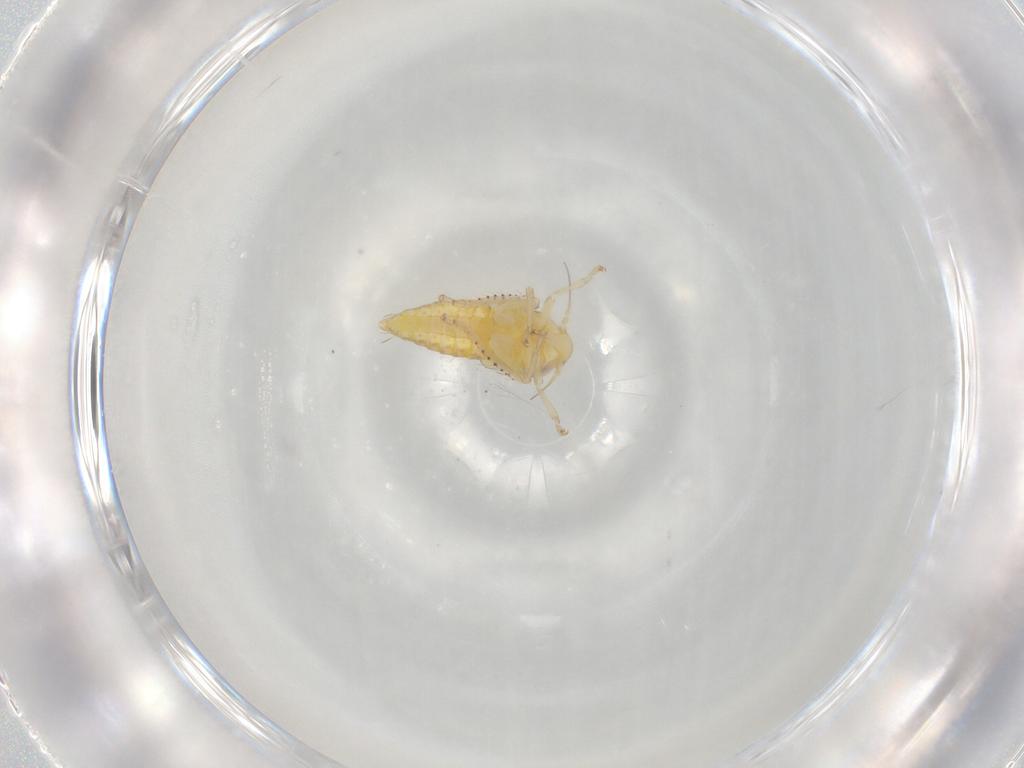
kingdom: Animalia
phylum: Arthropoda
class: Insecta
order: Hemiptera
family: Cicadellidae
